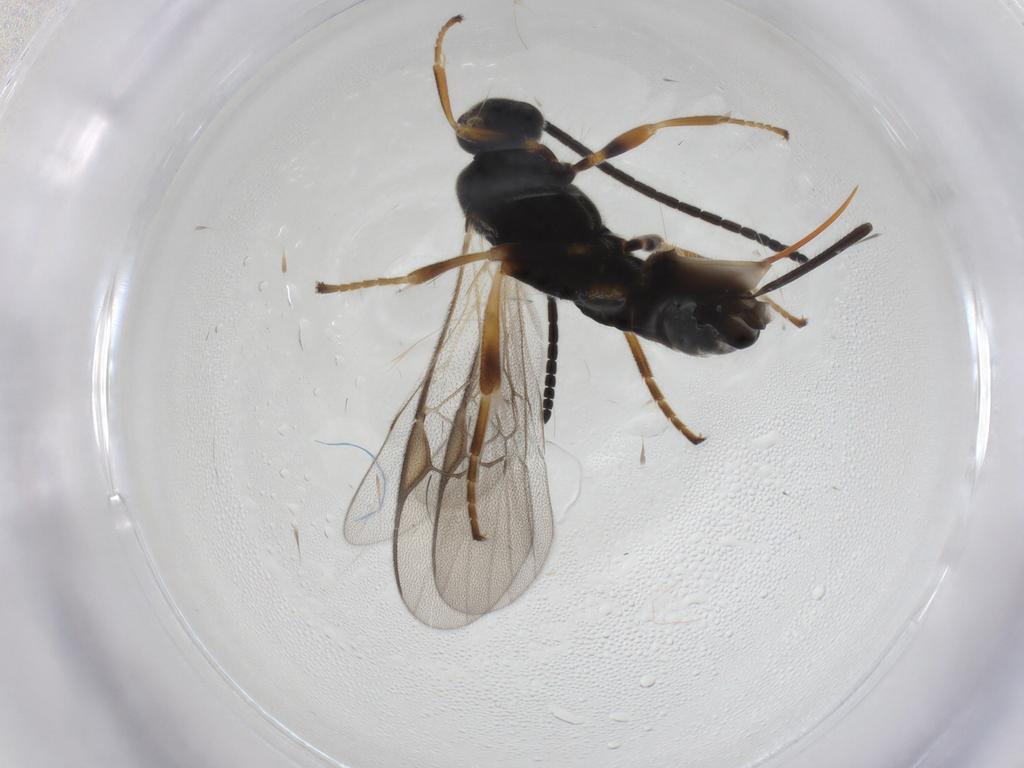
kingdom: Animalia
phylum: Arthropoda
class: Insecta
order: Hymenoptera
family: Braconidae
